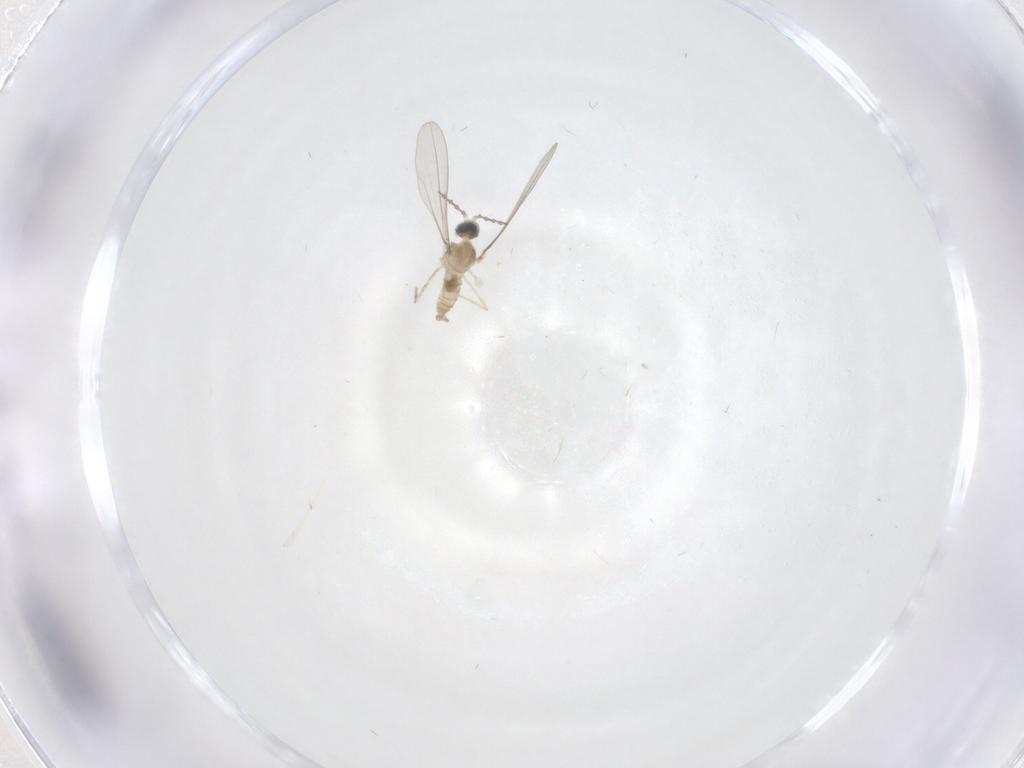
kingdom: Animalia
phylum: Arthropoda
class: Insecta
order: Diptera
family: Cecidomyiidae
